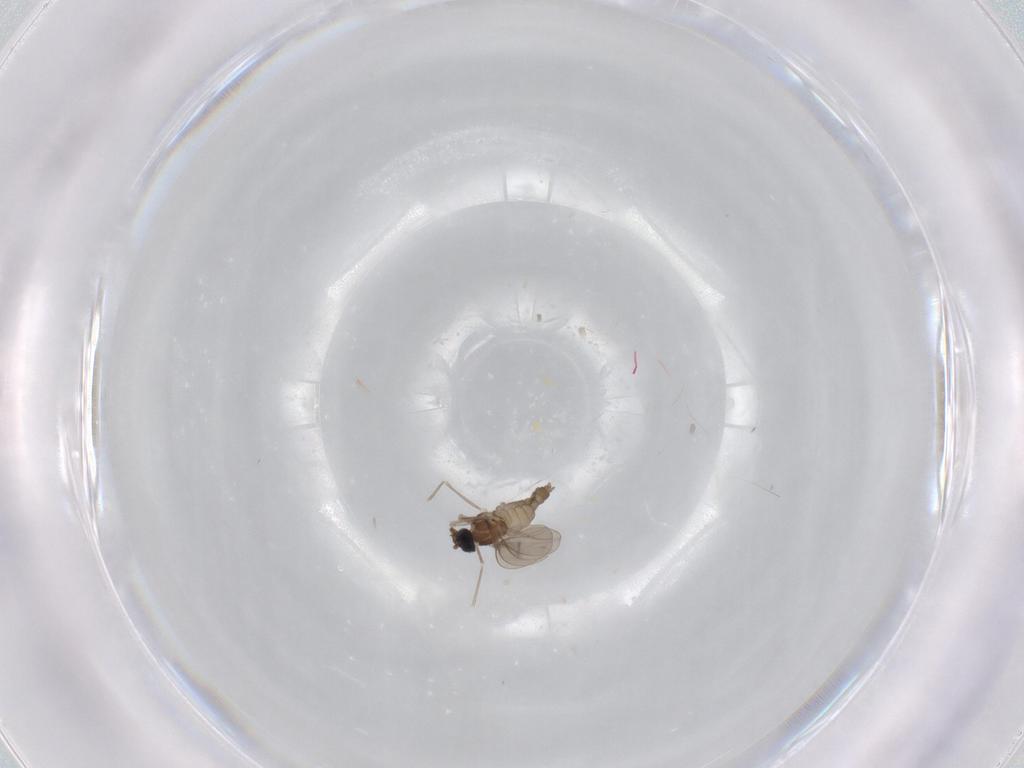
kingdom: Animalia
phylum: Arthropoda
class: Insecta
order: Diptera
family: Cecidomyiidae
